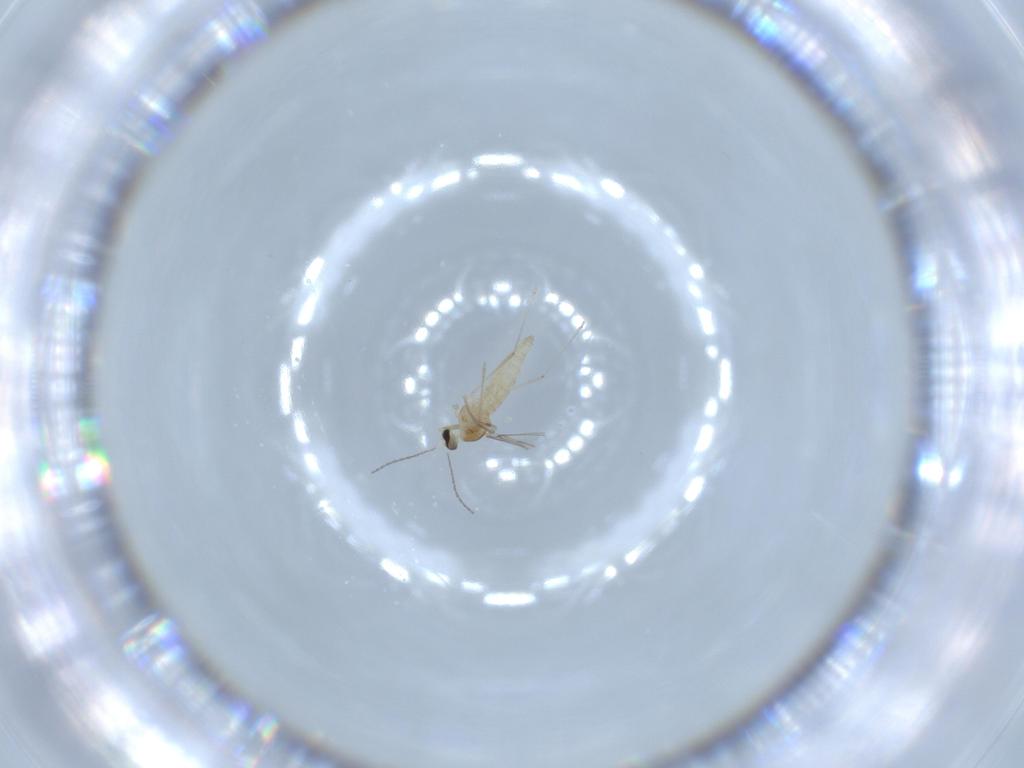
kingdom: Animalia
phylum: Arthropoda
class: Insecta
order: Diptera
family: Cecidomyiidae
